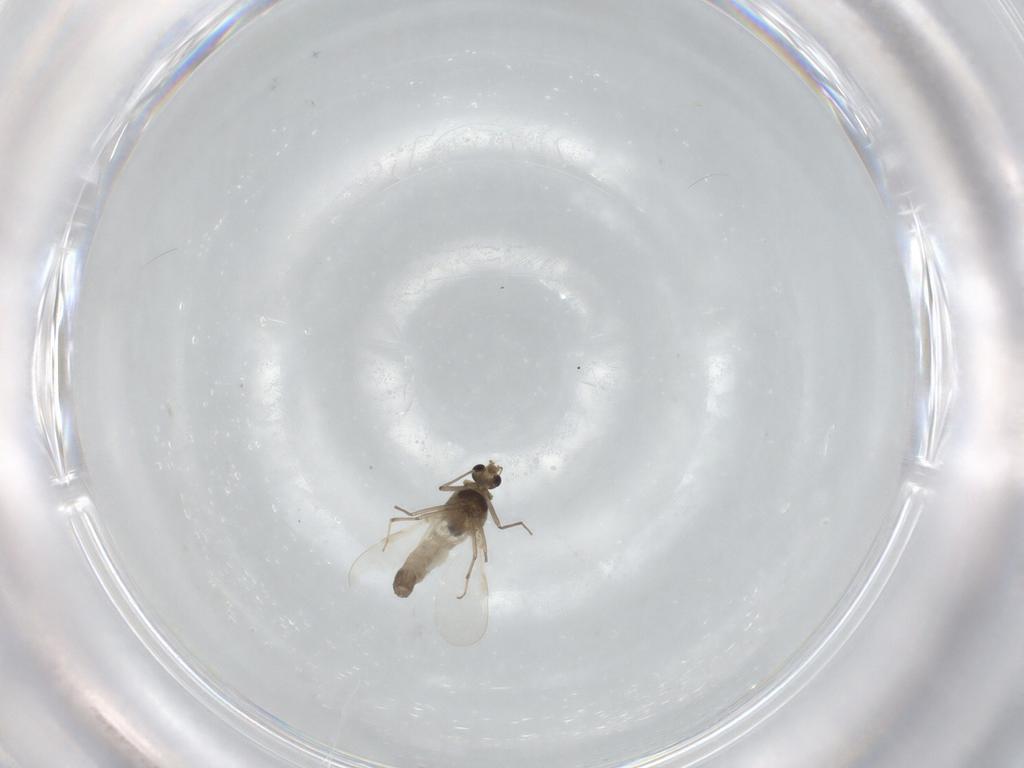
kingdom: Animalia
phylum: Arthropoda
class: Insecta
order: Diptera
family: Chironomidae
